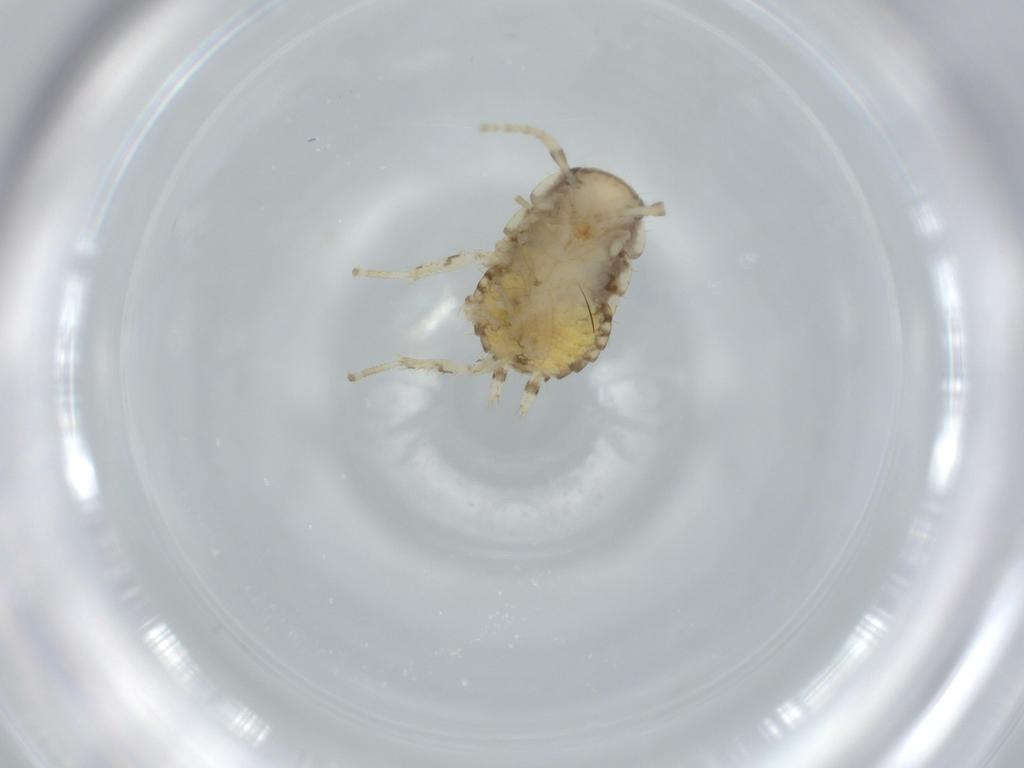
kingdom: Animalia
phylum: Arthropoda
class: Insecta
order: Blattodea
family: Ectobiidae
